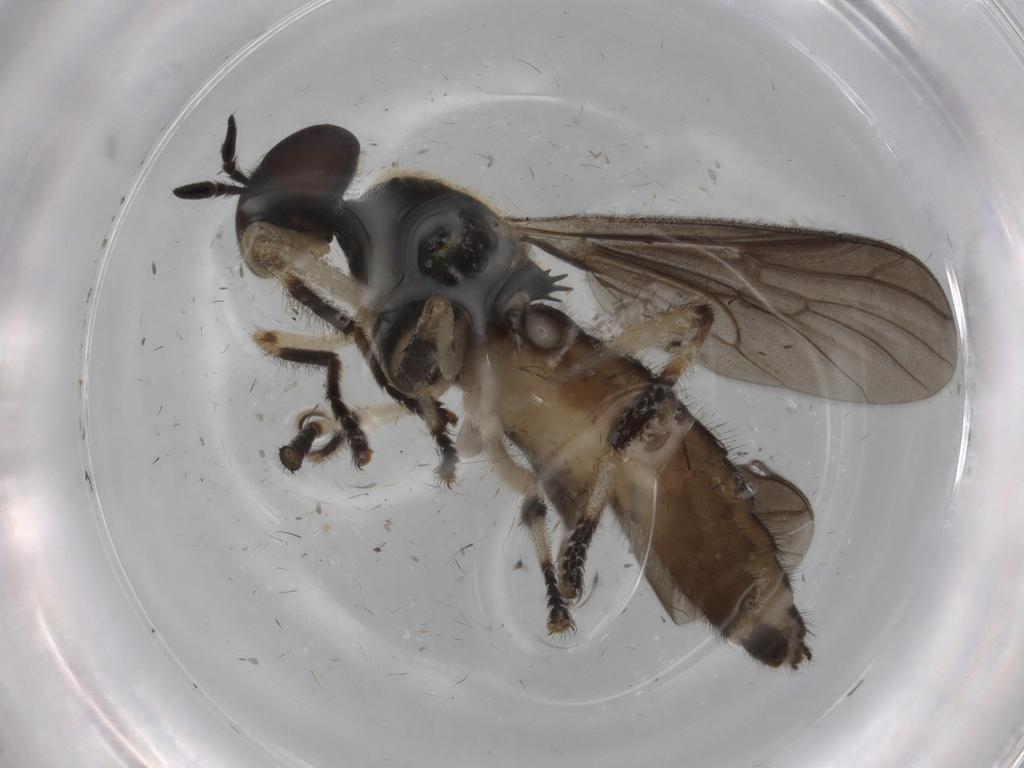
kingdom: Animalia
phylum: Arthropoda
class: Insecta
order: Diptera
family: Stratiomyidae
